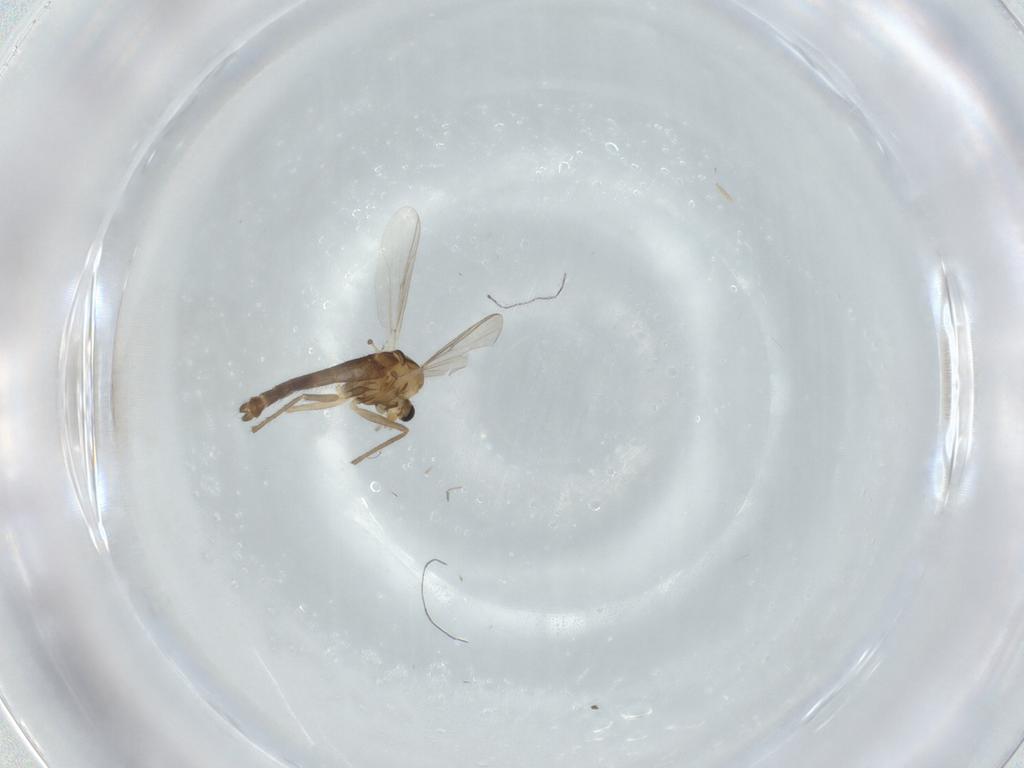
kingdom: Animalia
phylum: Arthropoda
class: Insecta
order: Diptera
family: Chironomidae
